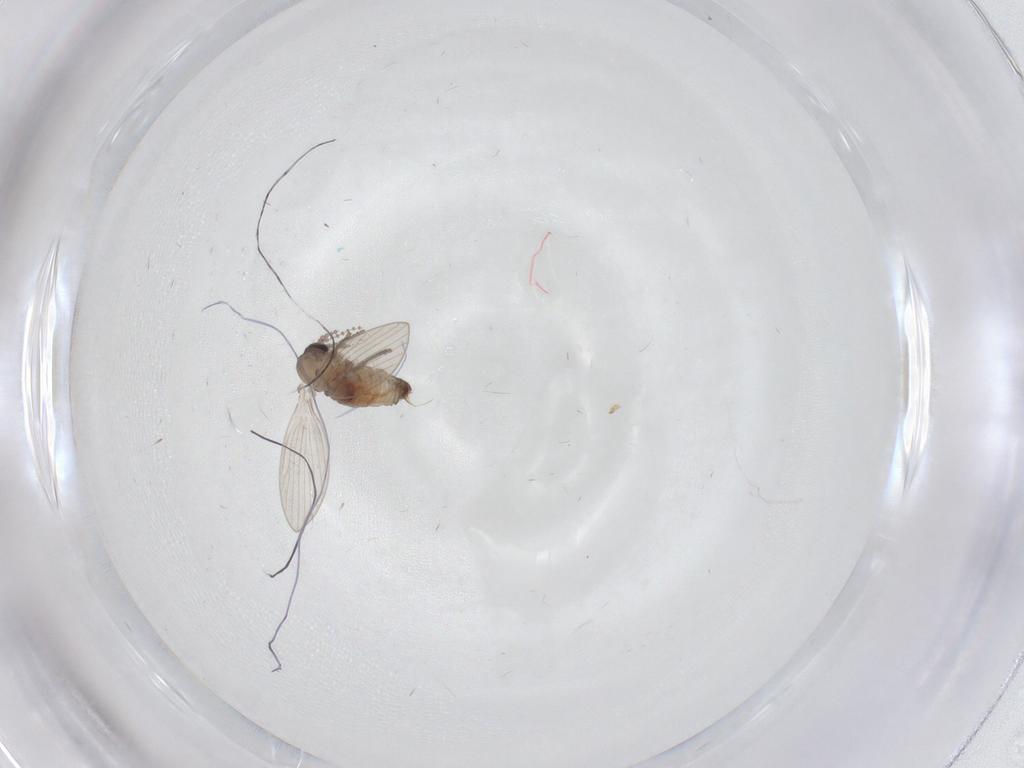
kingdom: Animalia
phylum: Arthropoda
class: Insecta
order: Diptera
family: Psychodidae
